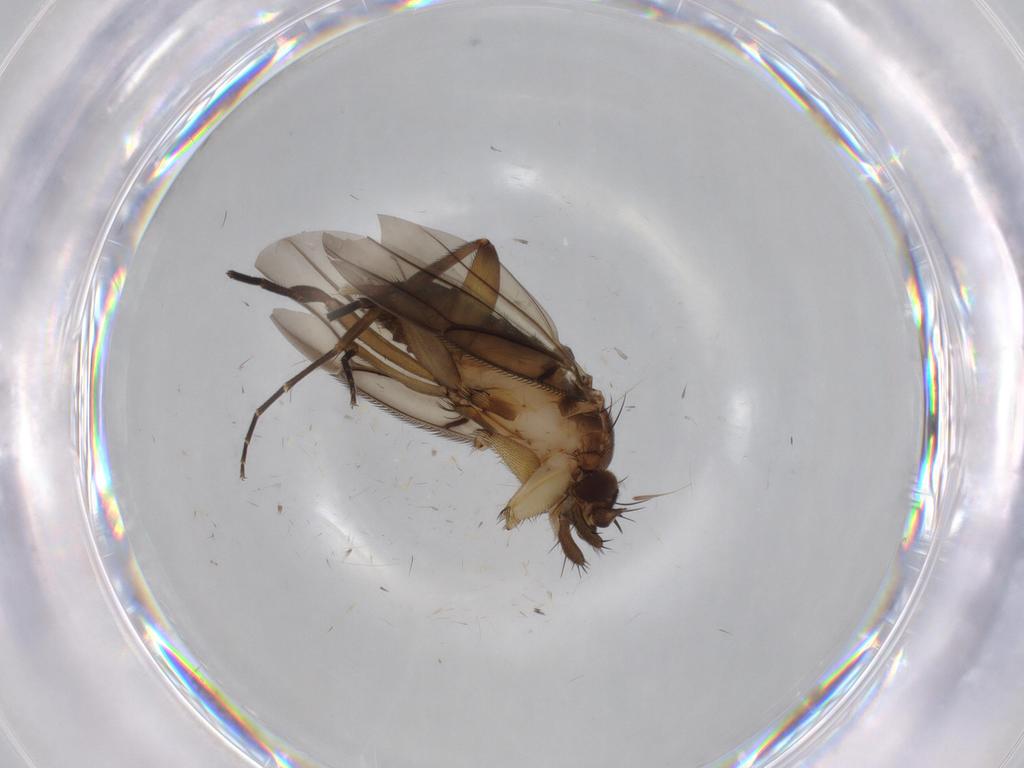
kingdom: Animalia
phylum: Arthropoda
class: Insecta
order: Diptera
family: Phoridae
